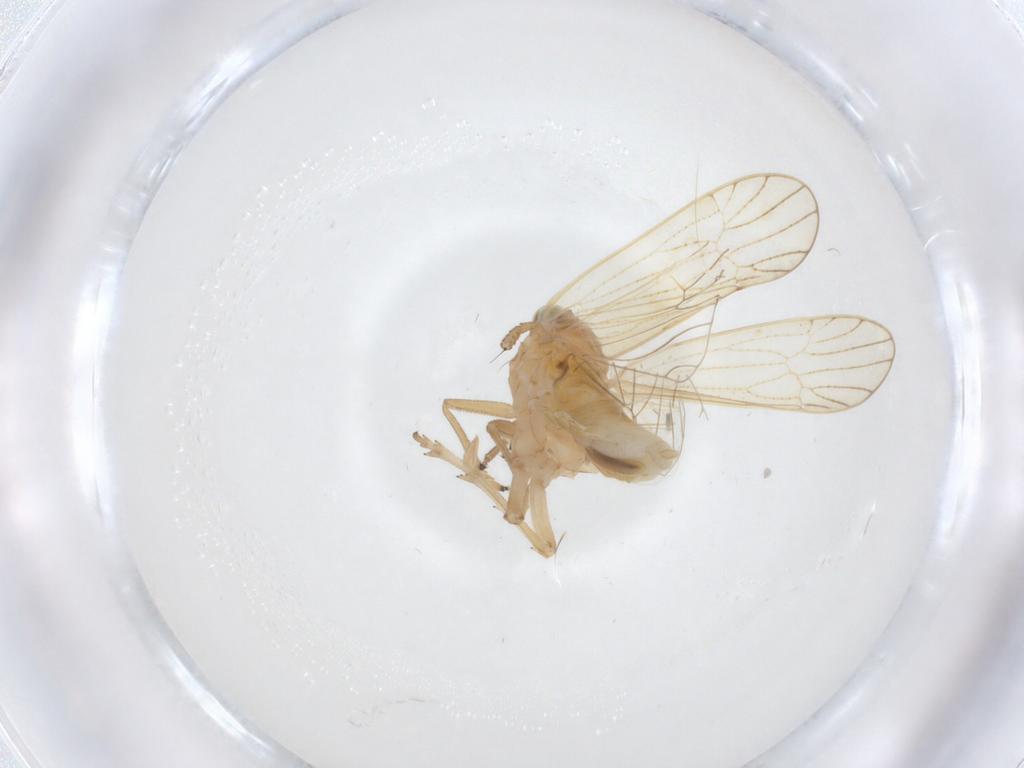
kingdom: Animalia
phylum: Arthropoda
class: Insecta
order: Hemiptera
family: Delphacidae
